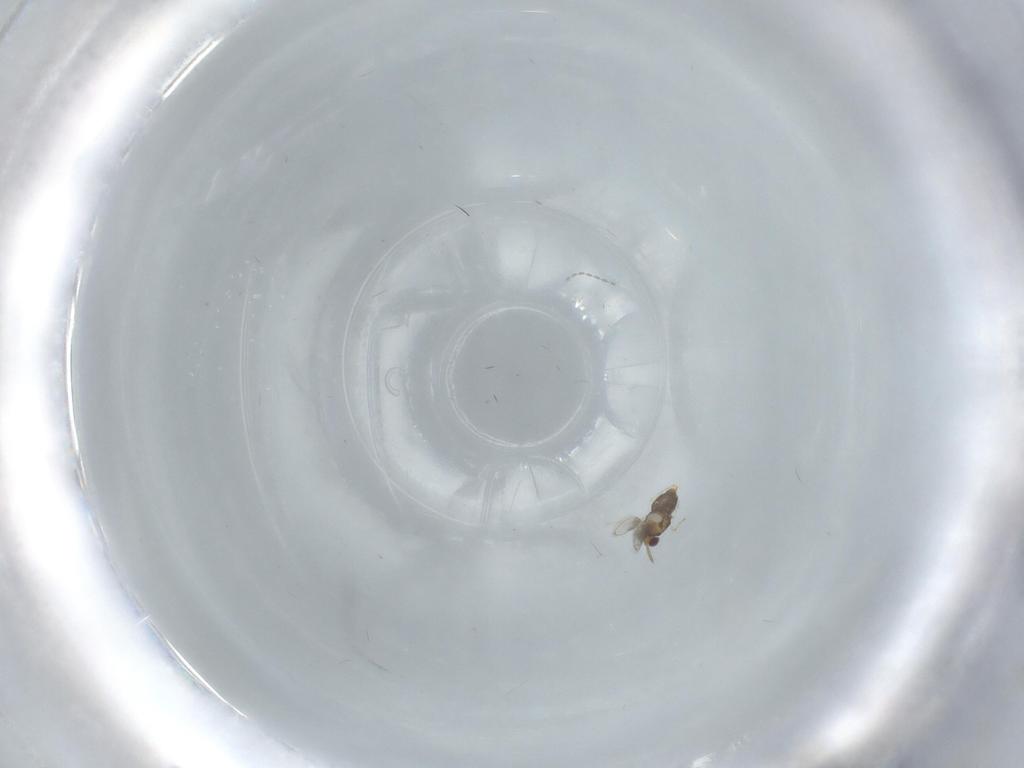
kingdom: Animalia
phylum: Arthropoda
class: Insecta
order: Hymenoptera
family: Aphelinidae
